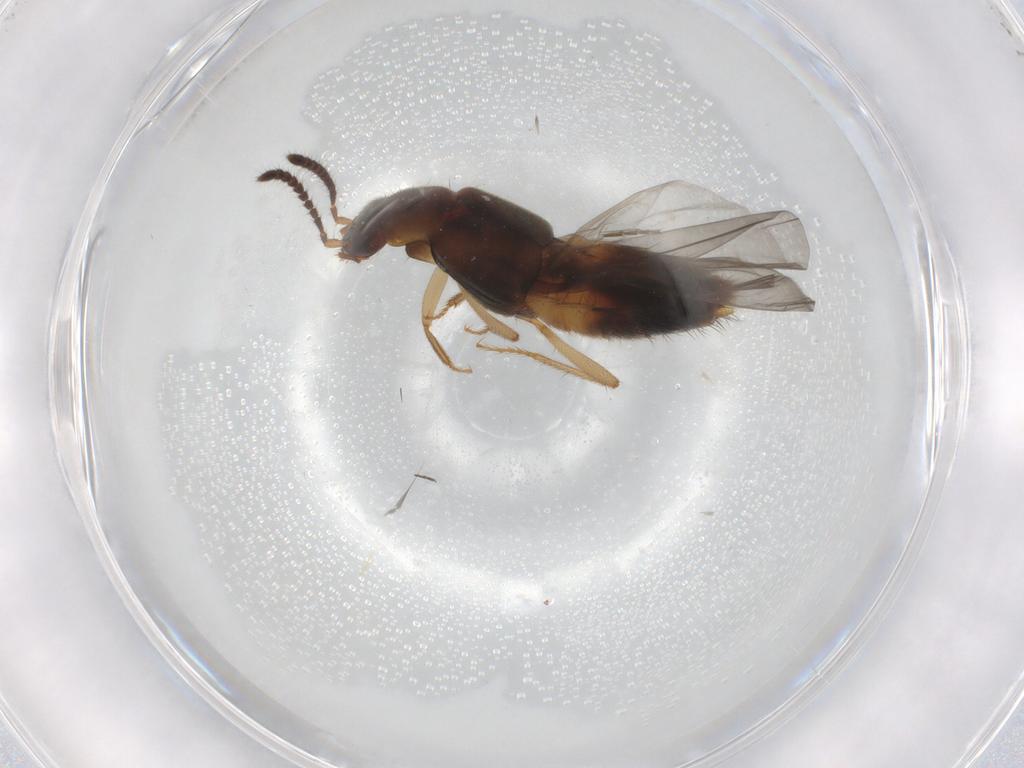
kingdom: Animalia
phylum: Arthropoda
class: Insecta
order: Coleoptera
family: Staphylinidae
